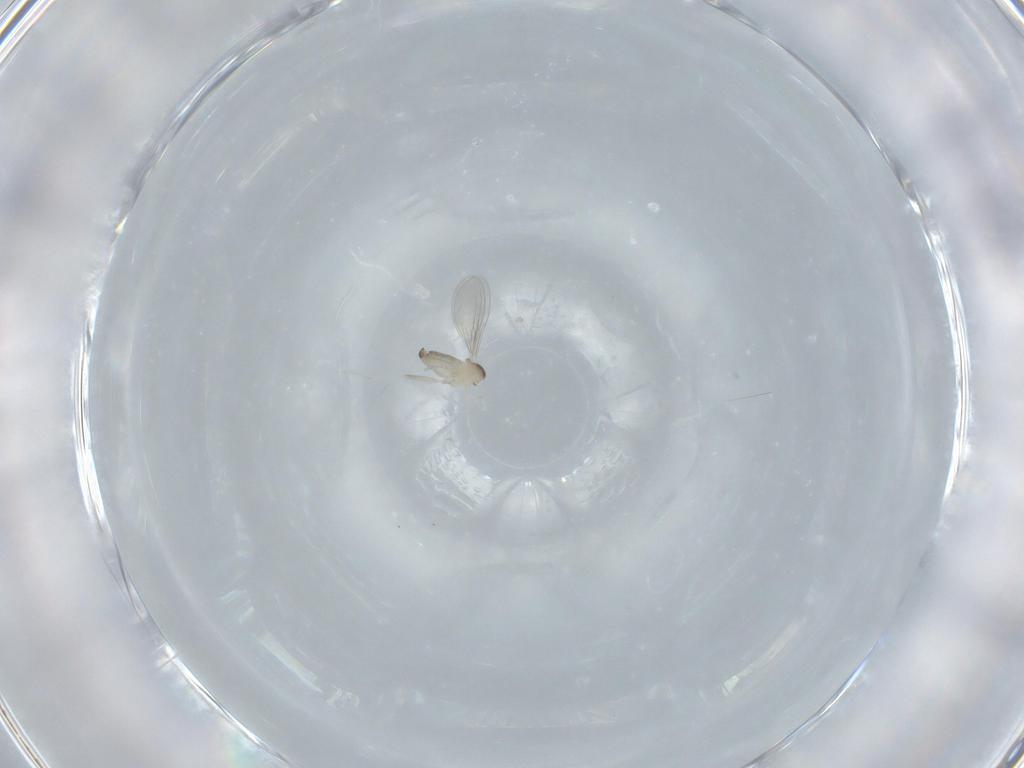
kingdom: Animalia
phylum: Arthropoda
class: Insecta
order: Diptera
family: Cecidomyiidae
